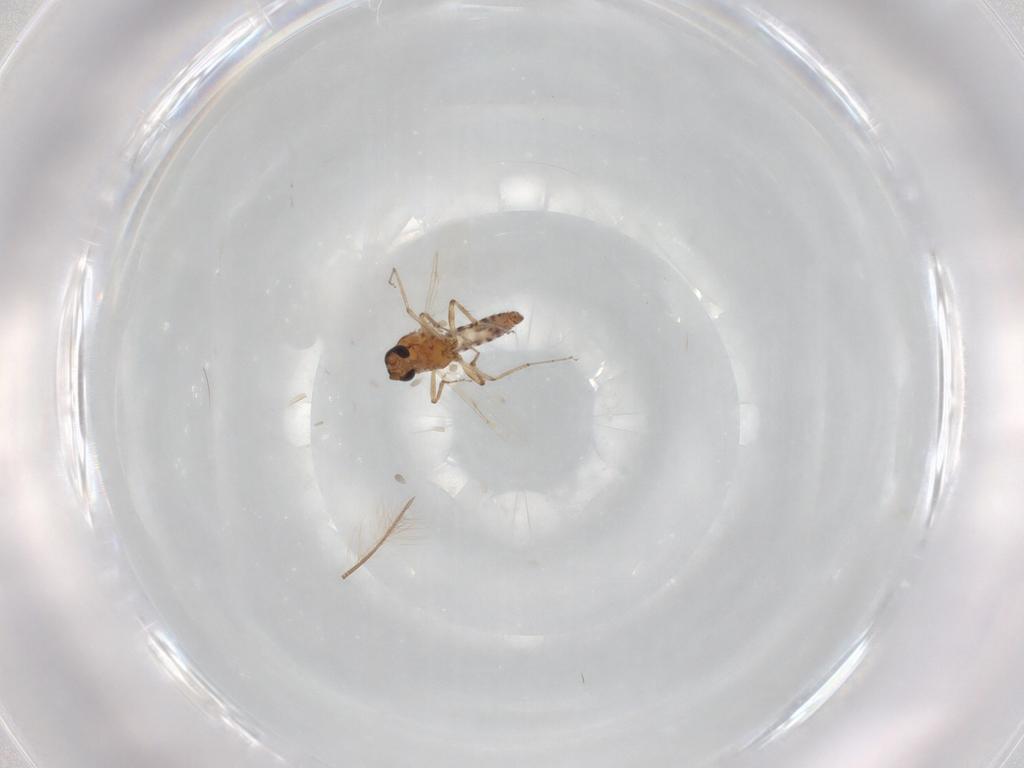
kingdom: Animalia
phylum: Arthropoda
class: Insecta
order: Diptera
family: Ceratopogonidae
